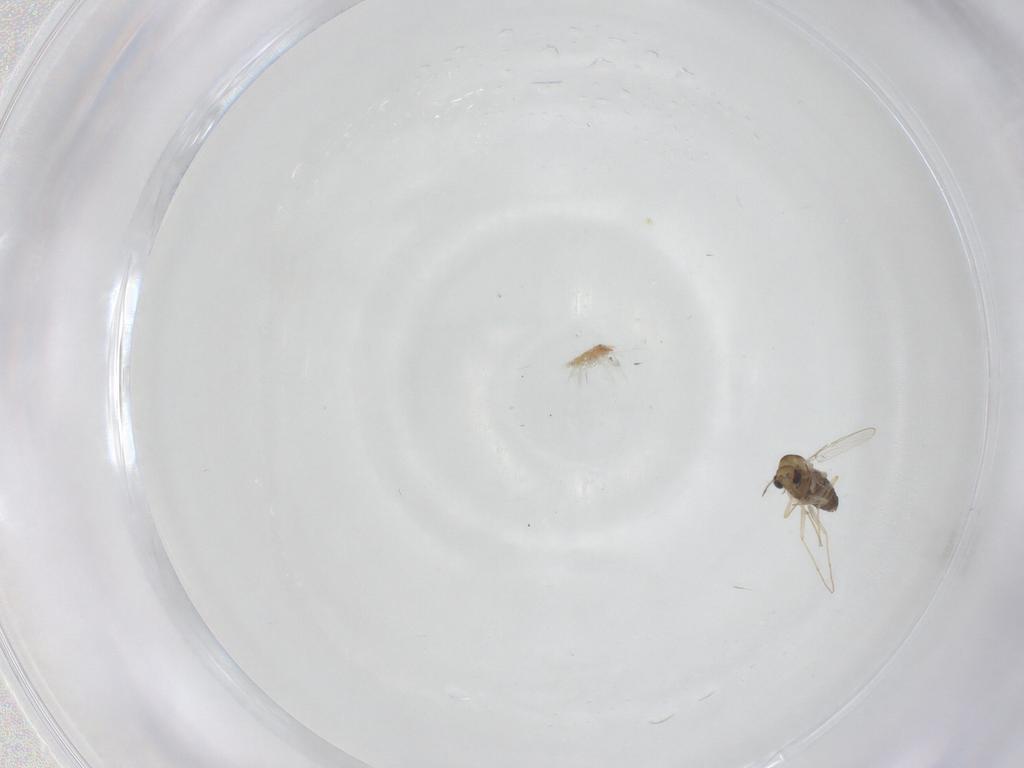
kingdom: Animalia
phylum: Arthropoda
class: Insecta
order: Diptera
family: Chironomidae
